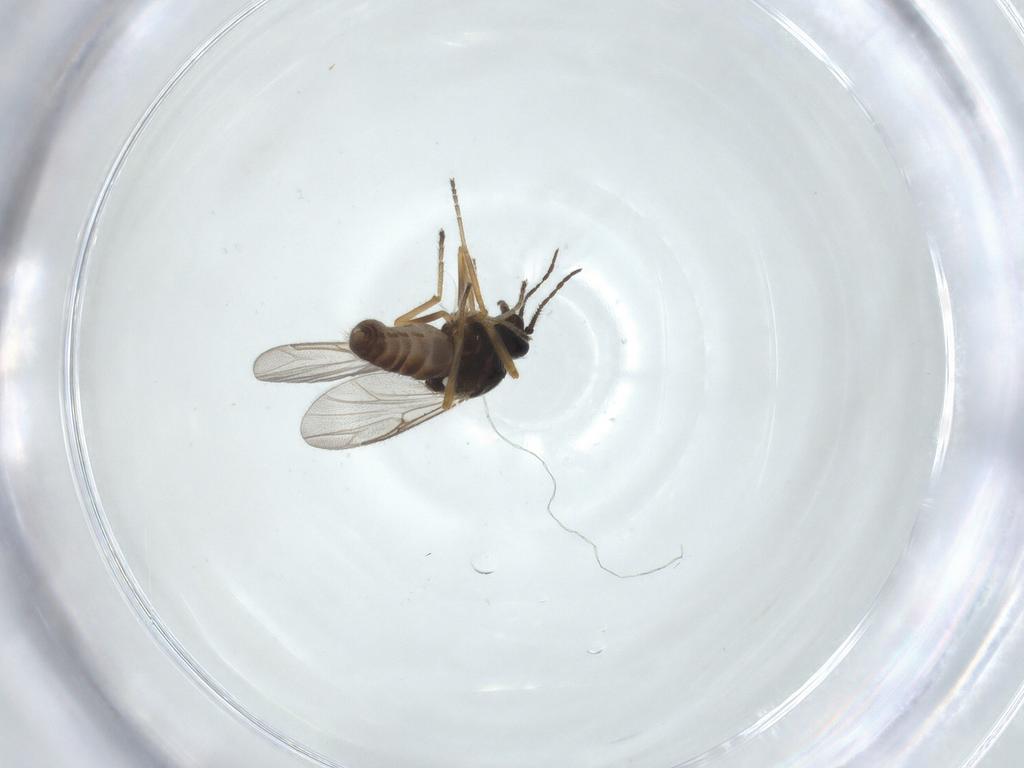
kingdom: Animalia
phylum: Arthropoda
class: Insecta
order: Diptera
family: Ceratopogonidae
